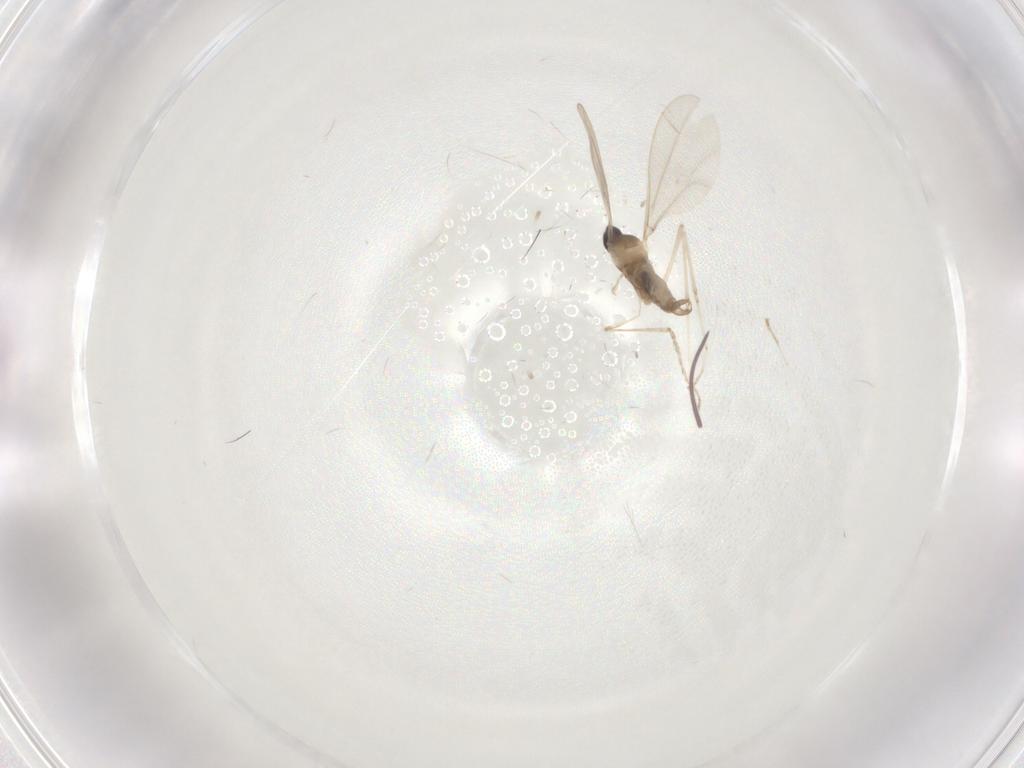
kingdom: Animalia
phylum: Arthropoda
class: Insecta
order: Diptera
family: Cecidomyiidae
